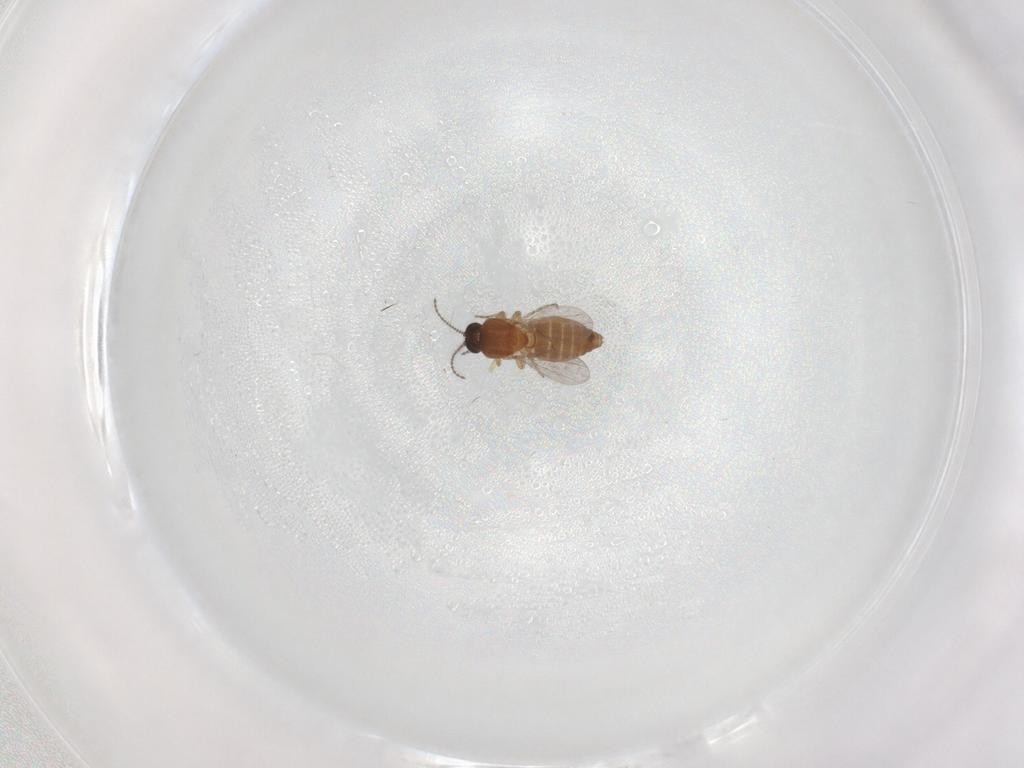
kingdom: Animalia
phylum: Arthropoda
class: Insecta
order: Diptera
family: Ceratopogonidae
